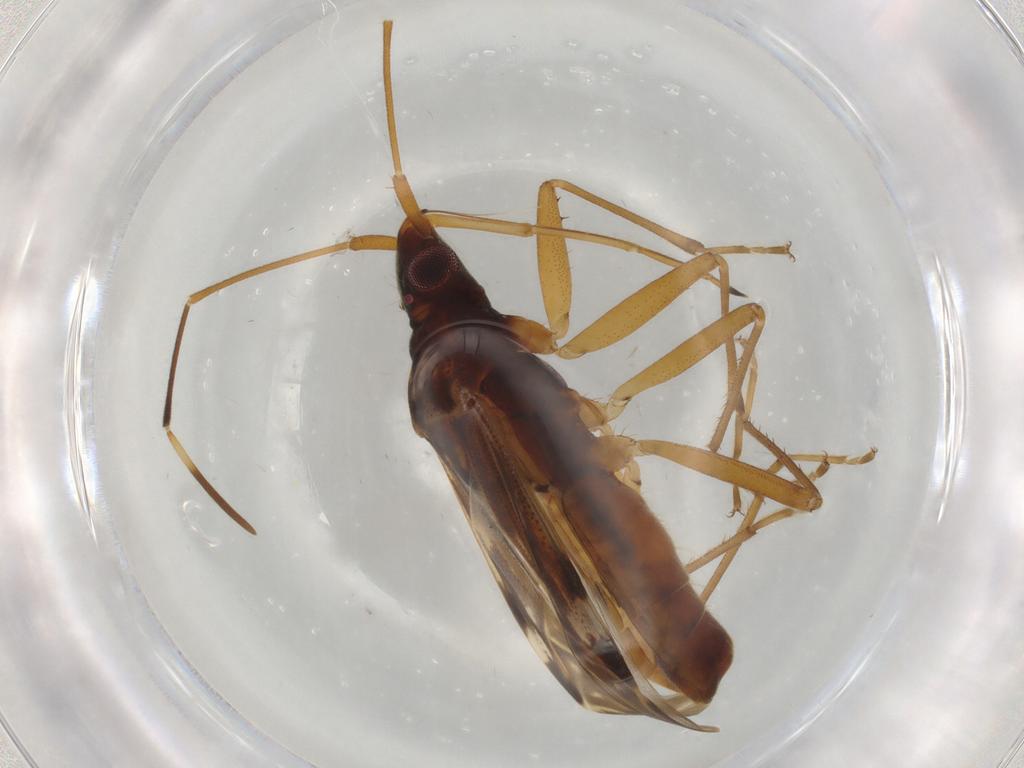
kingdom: Animalia
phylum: Arthropoda
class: Insecta
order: Hemiptera
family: Rhyparochromidae
